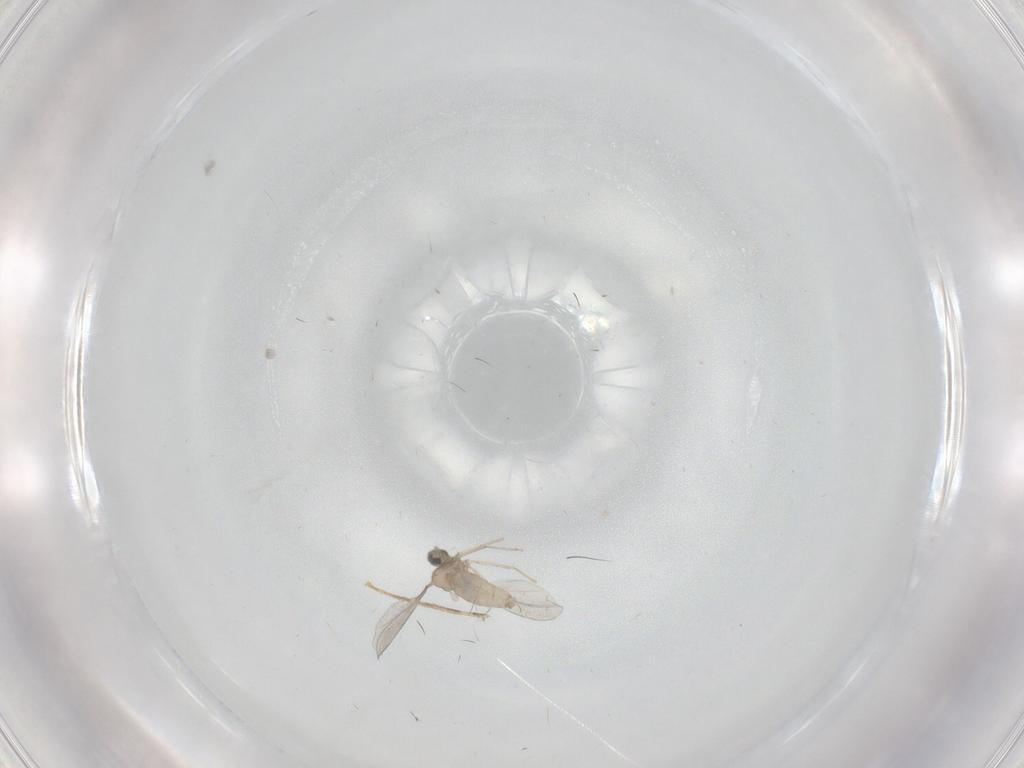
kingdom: Animalia
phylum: Arthropoda
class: Insecta
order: Diptera
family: Cecidomyiidae
